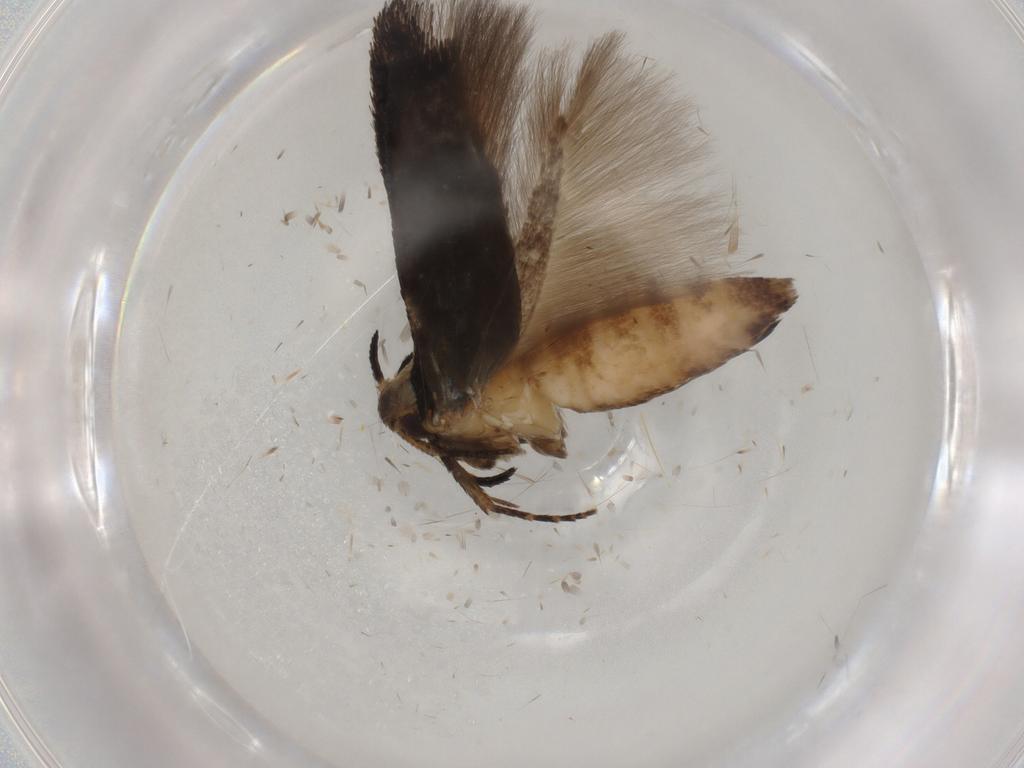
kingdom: Animalia
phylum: Arthropoda
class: Insecta
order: Lepidoptera
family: Cosmopterigidae
